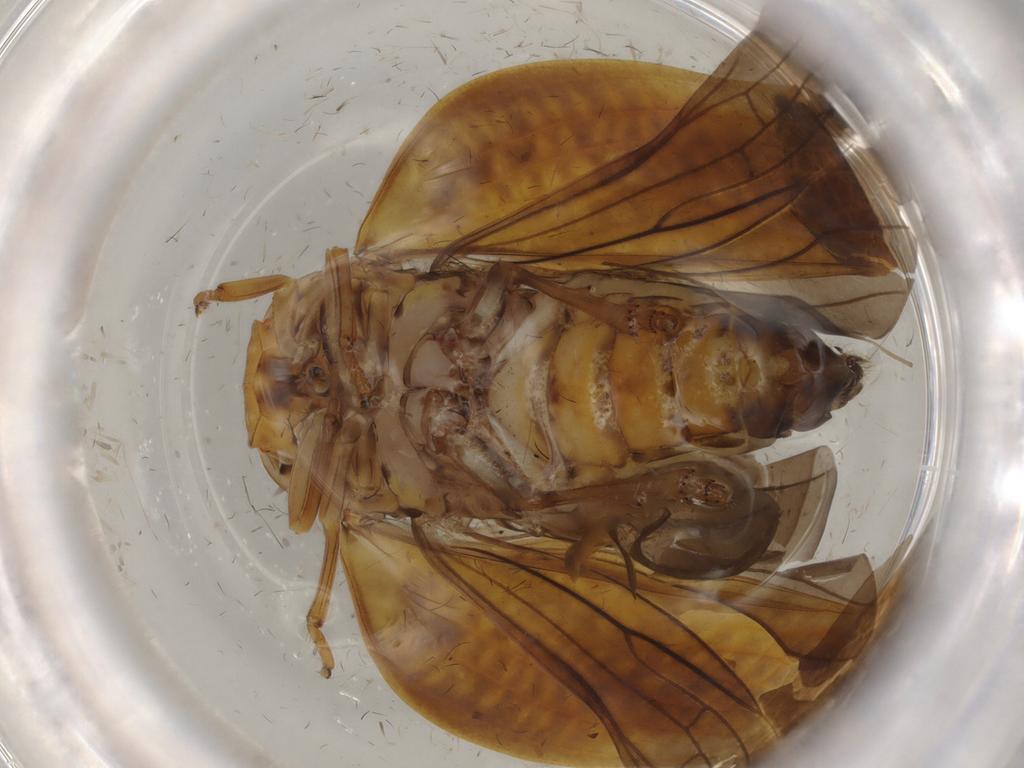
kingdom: Animalia
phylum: Arthropoda
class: Insecta
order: Hemiptera
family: Nogodinidae
